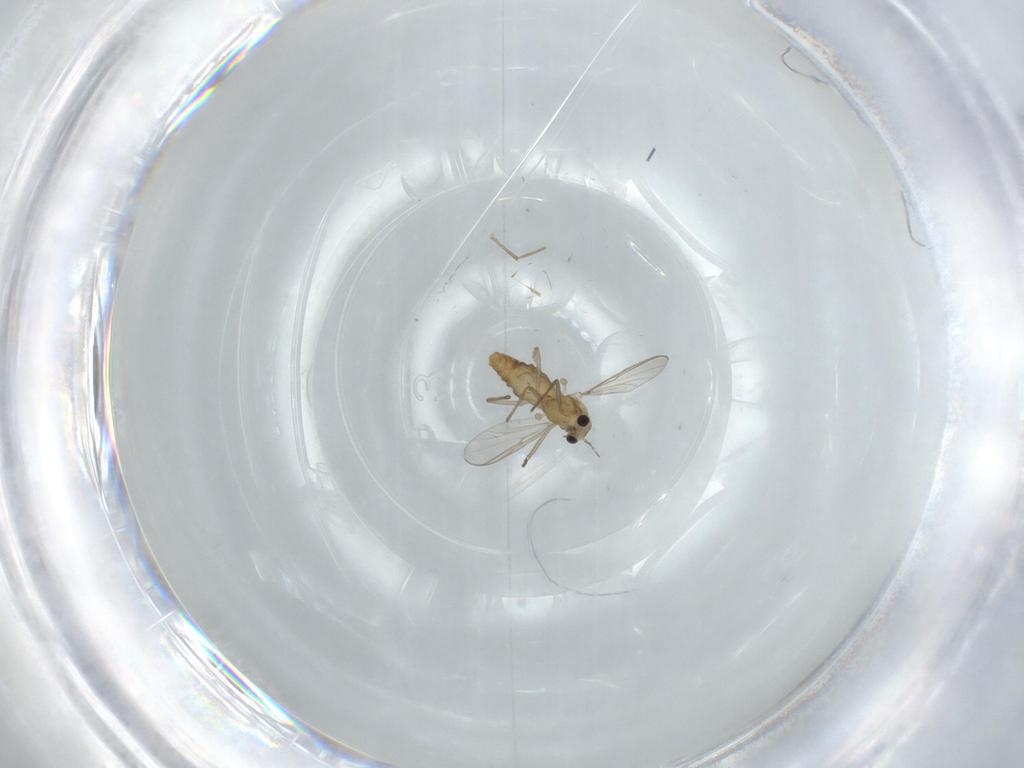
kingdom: Animalia
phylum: Arthropoda
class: Insecta
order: Diptera
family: Chironomidae
